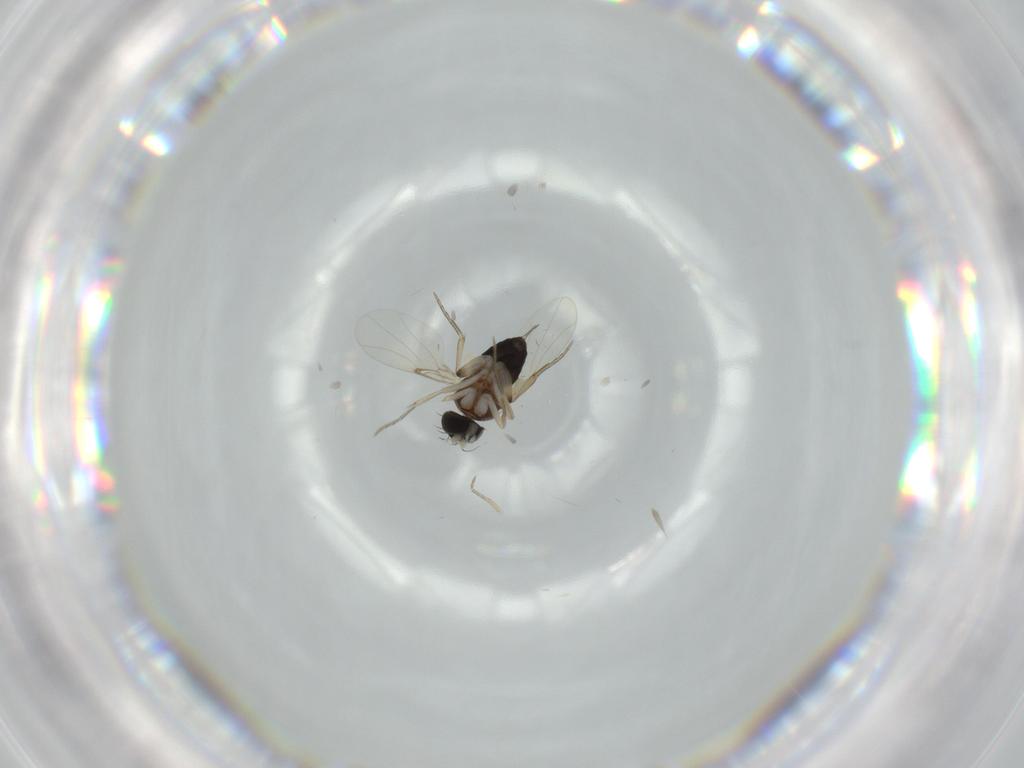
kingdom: Animalia
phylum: Arthropoda
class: Insecta
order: Diptera
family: Phoridae
